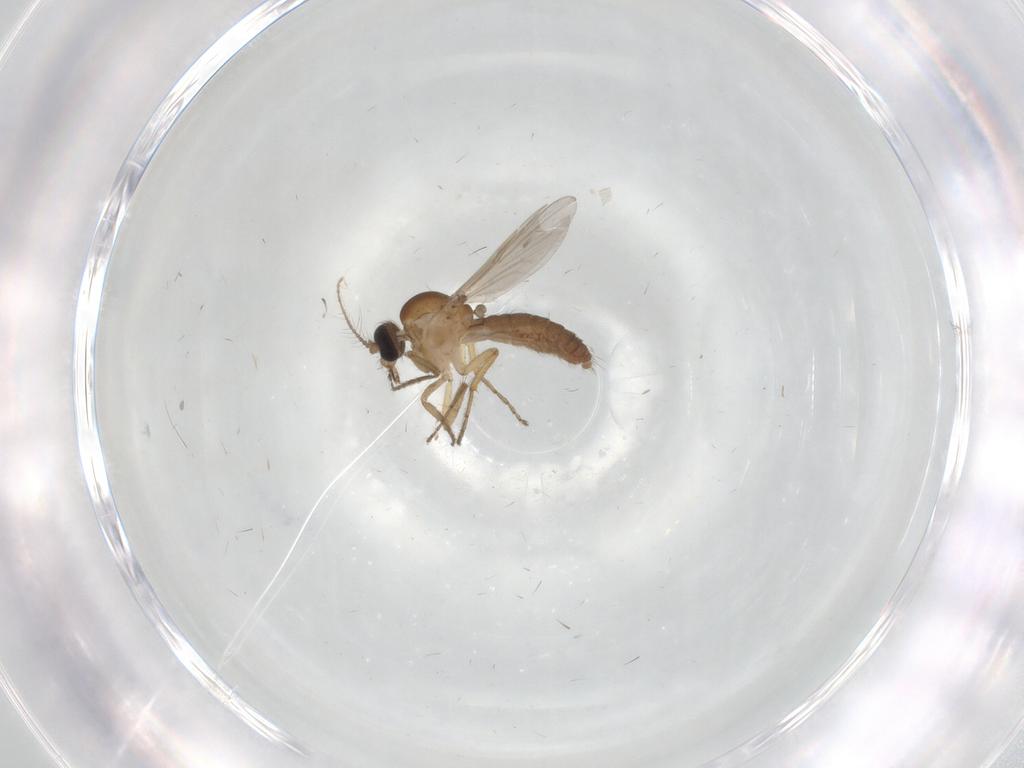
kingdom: Animalia
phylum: Arthropoda
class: Insecta
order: Diptera
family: Ceratopogonidae
